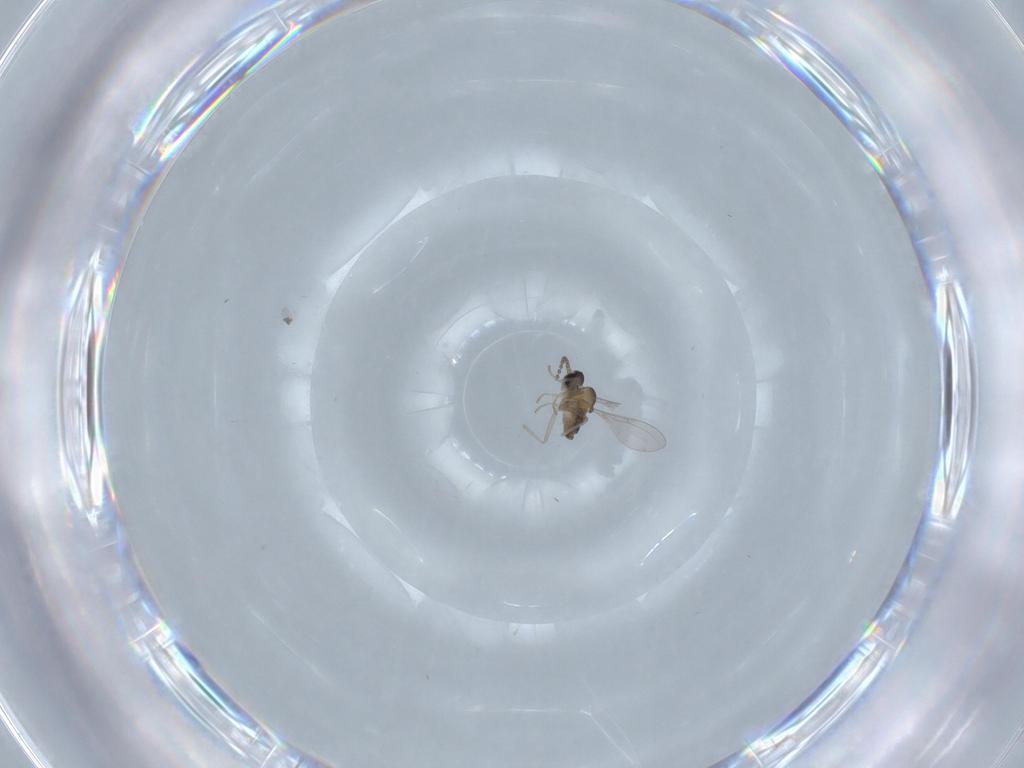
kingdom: Animalia
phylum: Arthropoda
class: Insecta
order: Diptera
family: Cecidomyiidae
